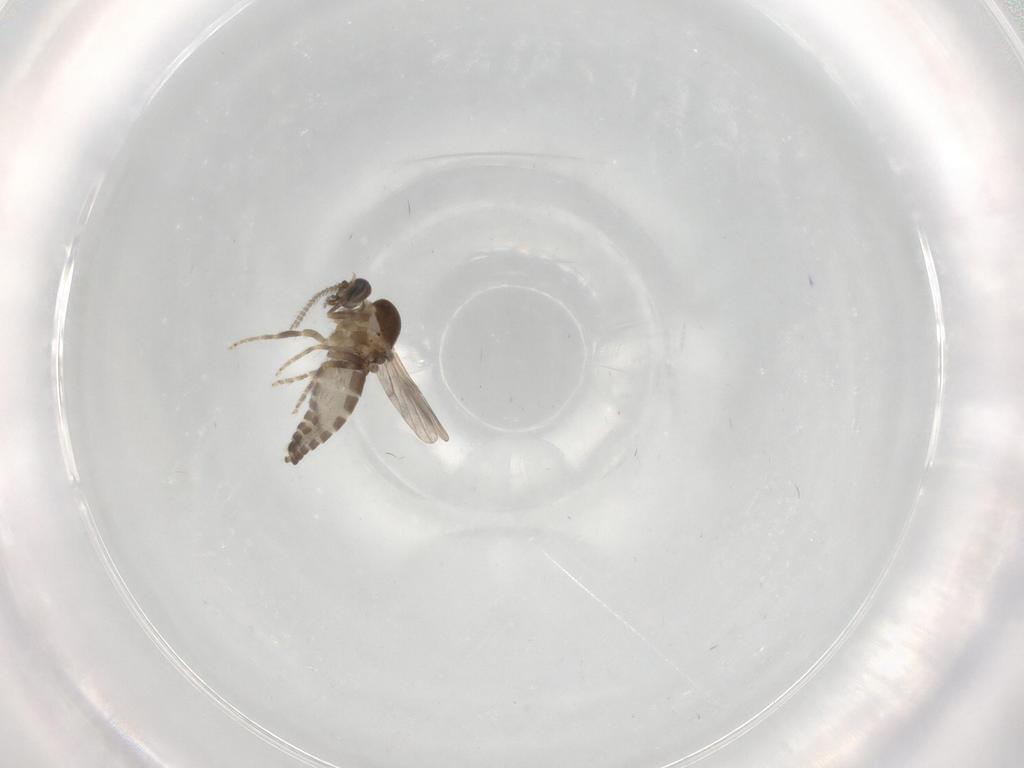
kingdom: Animalia
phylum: Arthropoda
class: Insecta
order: Diptera
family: Ceratopogonidae
